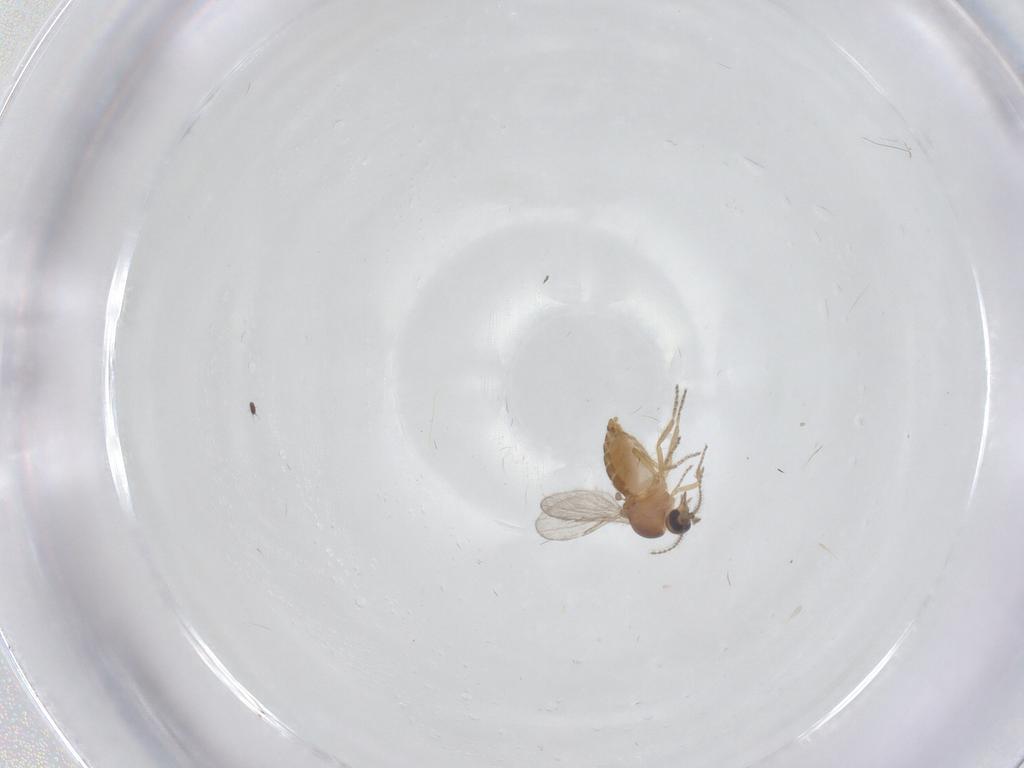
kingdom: Animalia
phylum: Arthropoda
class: Insecta
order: Diptera
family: Ceratopogonidae
